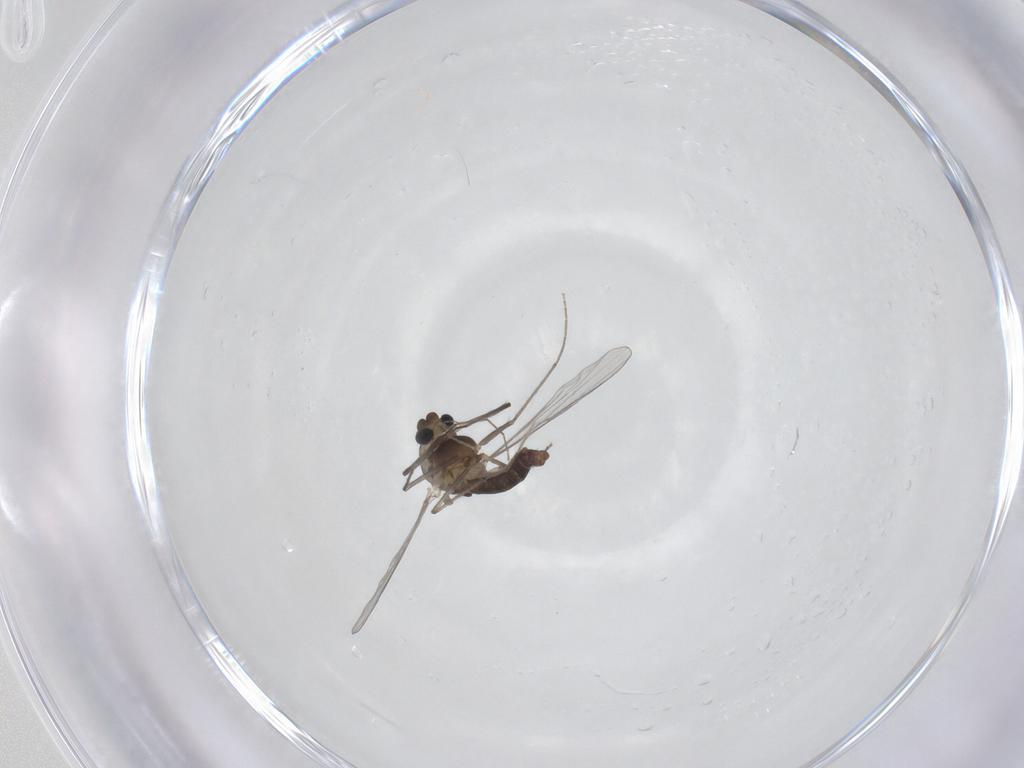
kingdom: Animalia
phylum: Arthropoda
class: Insecta
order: Diptera
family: Chironomidae
